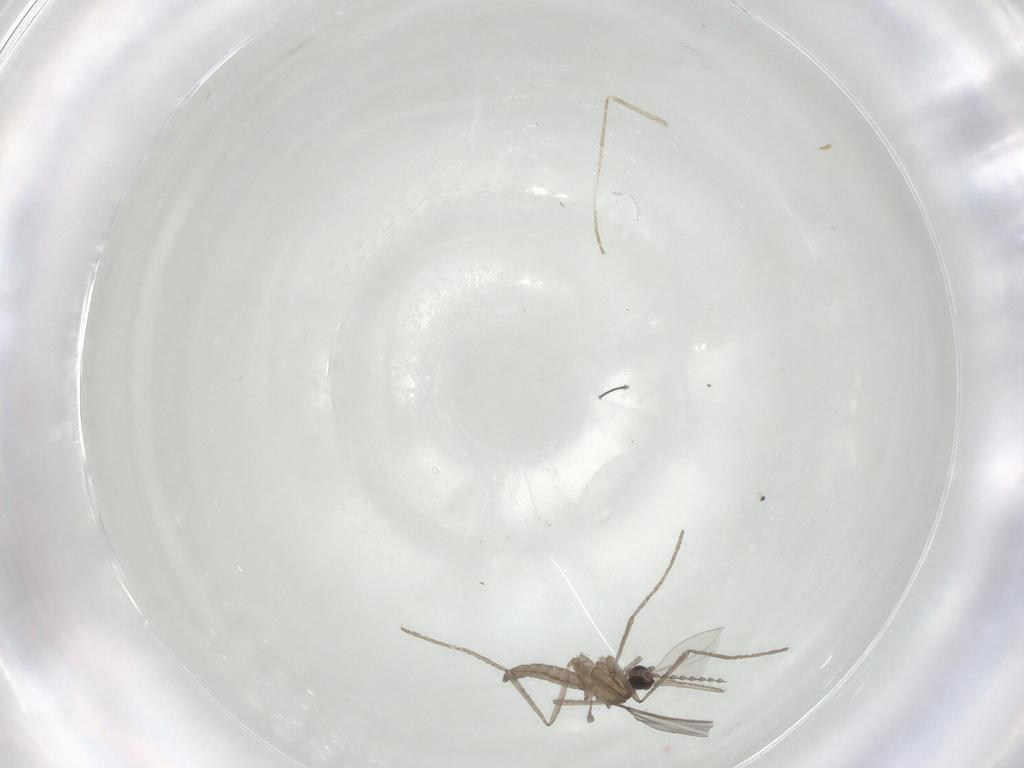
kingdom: Animalia
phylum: Arthropoda
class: Insecta
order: Diptera
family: Cecidomyiidae
